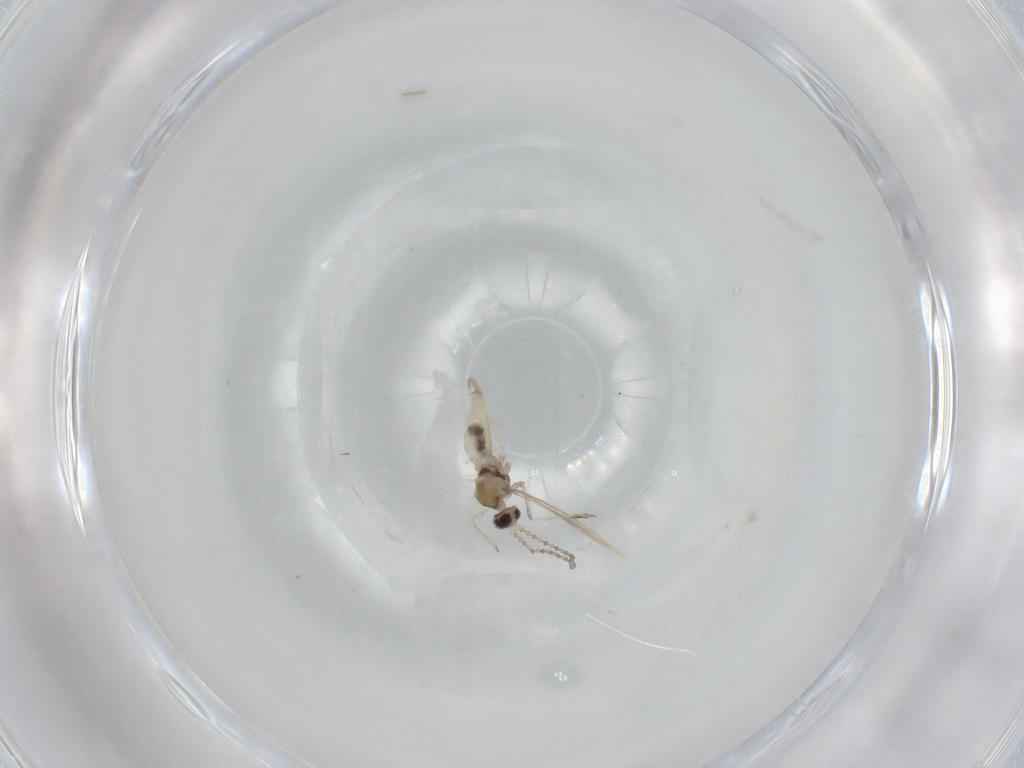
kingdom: Animalia
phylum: Arthropoda
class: Insecta
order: Diptera
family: Cecidomyiidae
